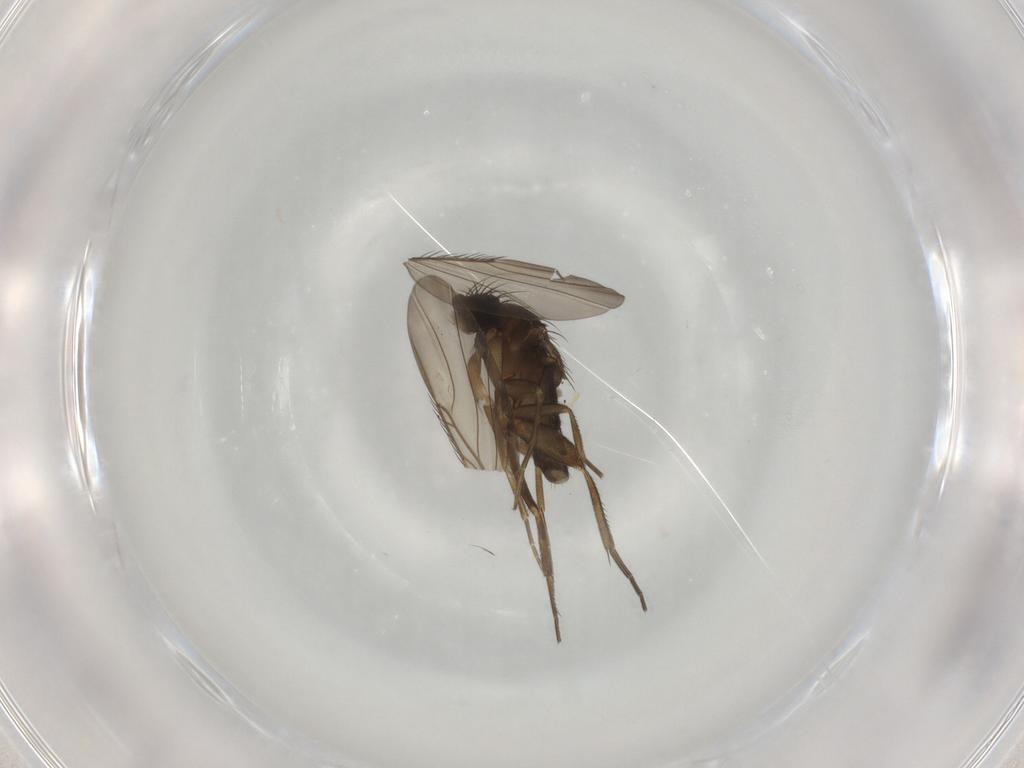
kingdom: Animalia
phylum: Arthropoda
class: Insecta
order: Diptera
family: Phoridae
